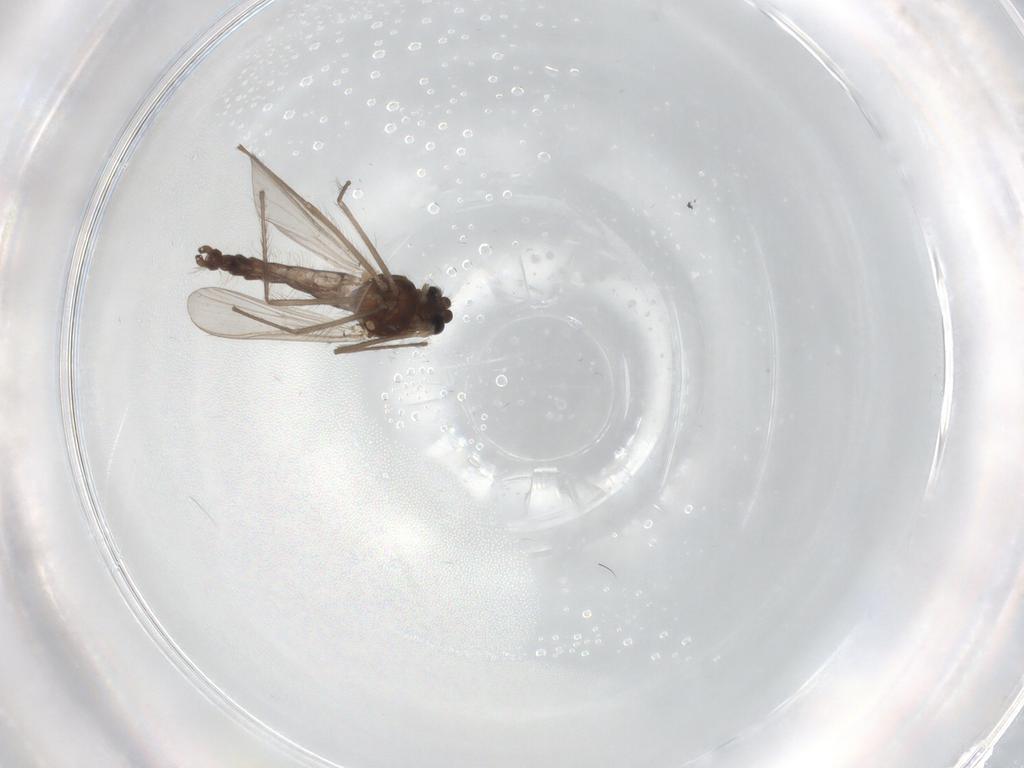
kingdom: Animalia
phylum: Arthropoda
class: Insecta
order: Diptera
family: Chironomidae
